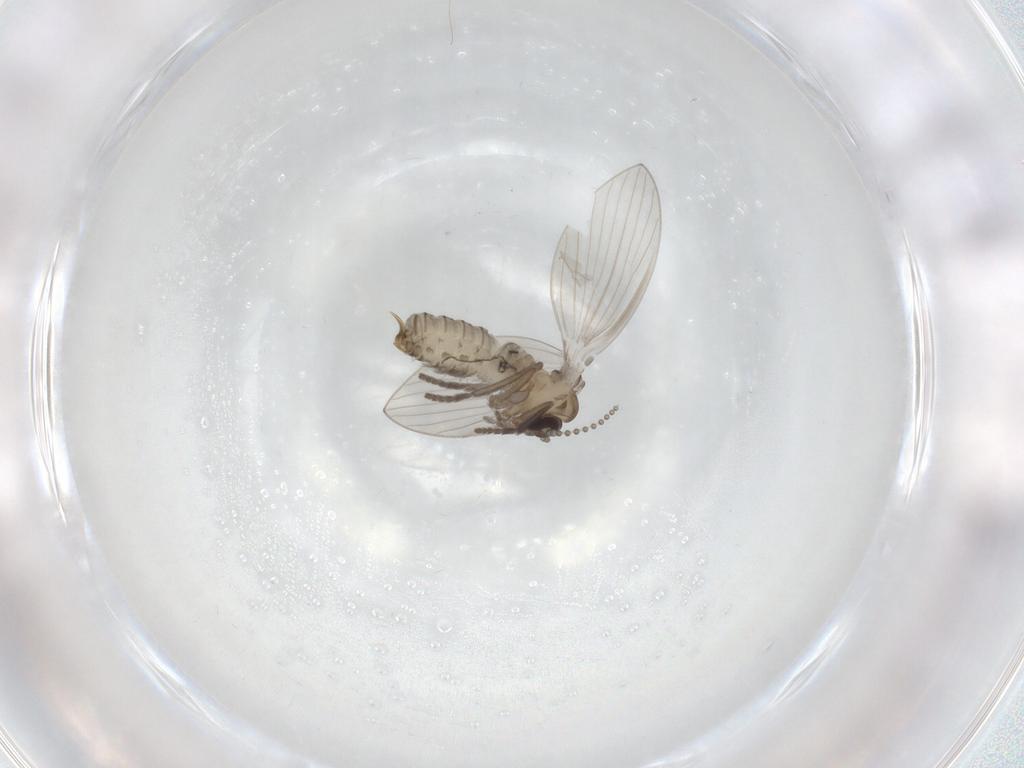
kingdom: Animalia
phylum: Arthropoda
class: Insecta
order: Diptera
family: Psychodidae
